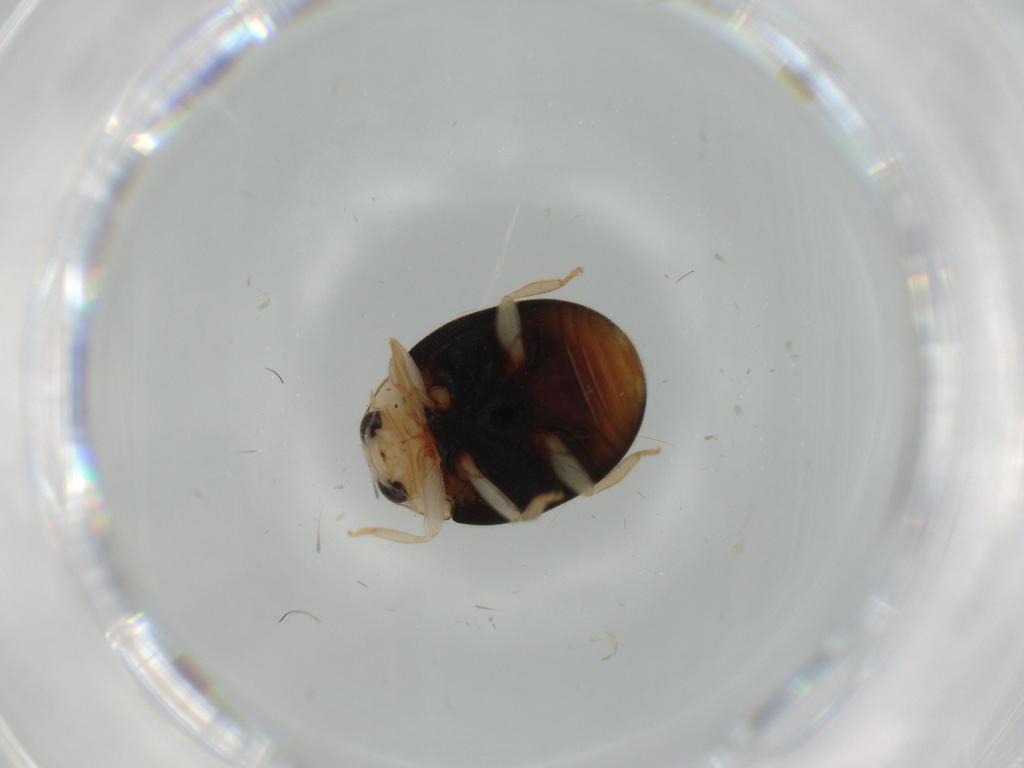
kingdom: Animalia
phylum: Arthropoda
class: Insecta
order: Coleoptera
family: Coccinellidae
